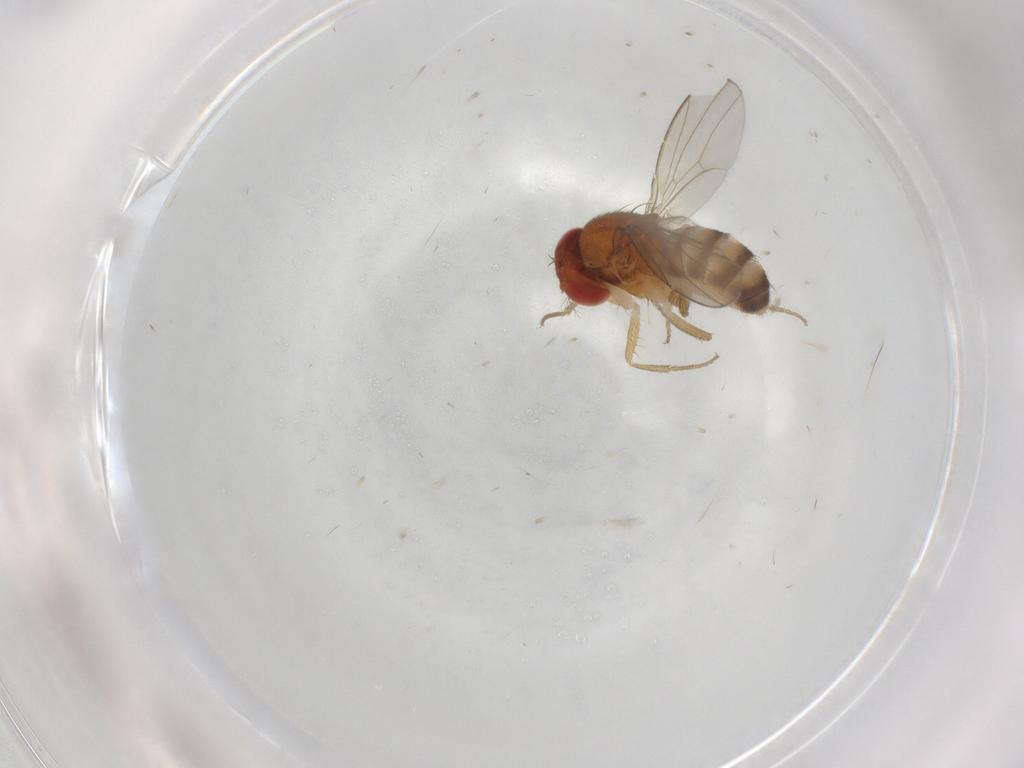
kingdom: Animalia
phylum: Arthropoda
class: Insecta
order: Diptera
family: Drosophilidae
